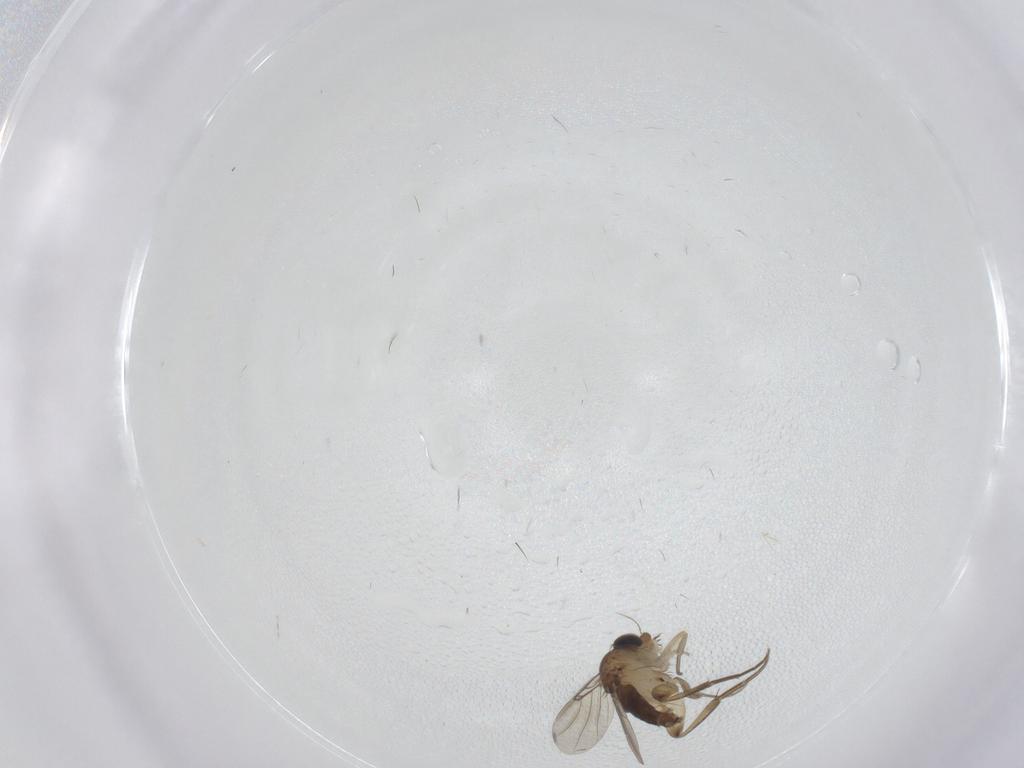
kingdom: Animalia
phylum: Arthropoda
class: Insecta
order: Diptera
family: Phoridae
